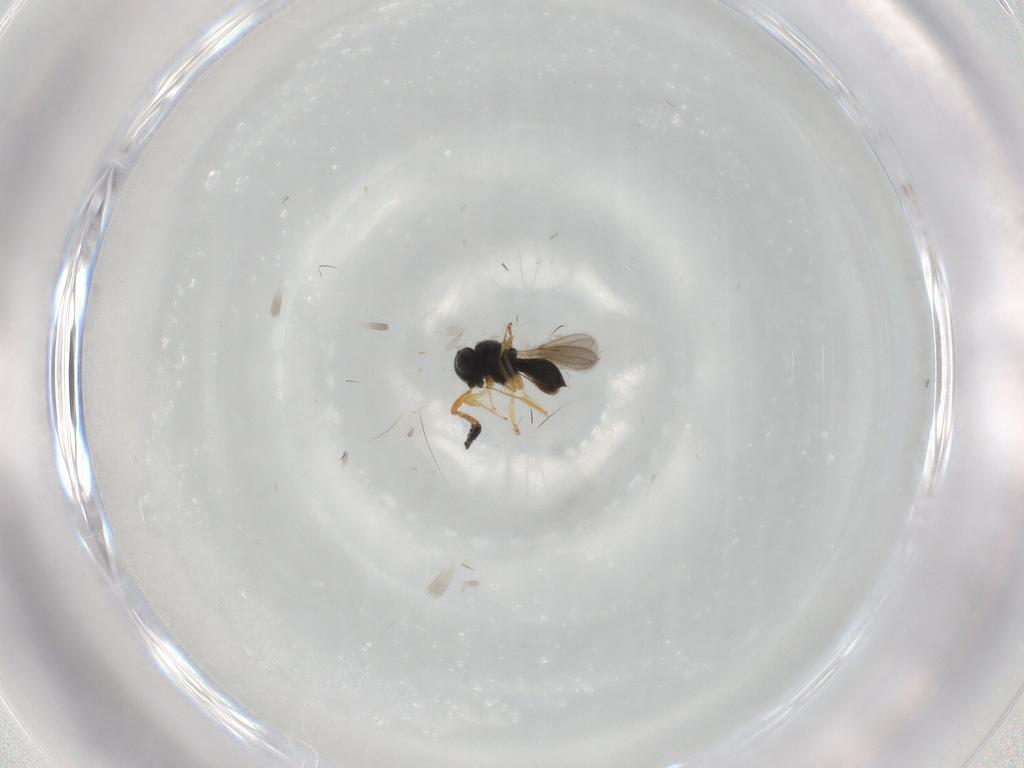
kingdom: Animalia
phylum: Arthropoda
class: Insecta
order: Hymenoptera
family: Scelionidae
